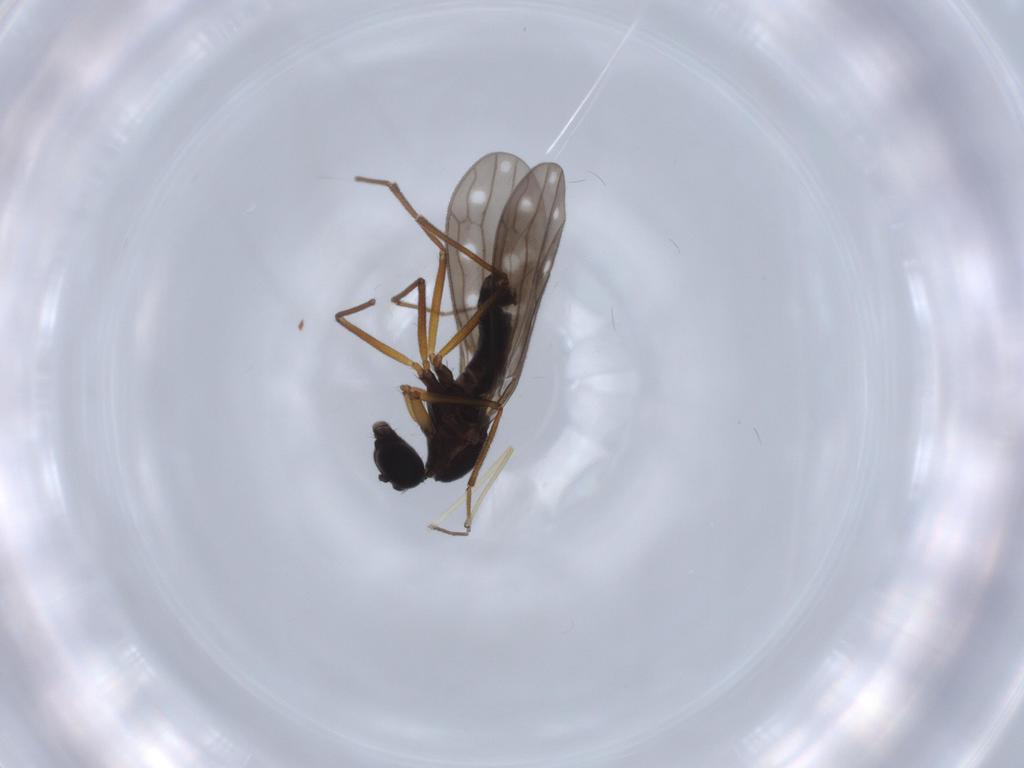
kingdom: Animalia
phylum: Arthropoda
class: Insecta
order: Diptera
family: Empididae
